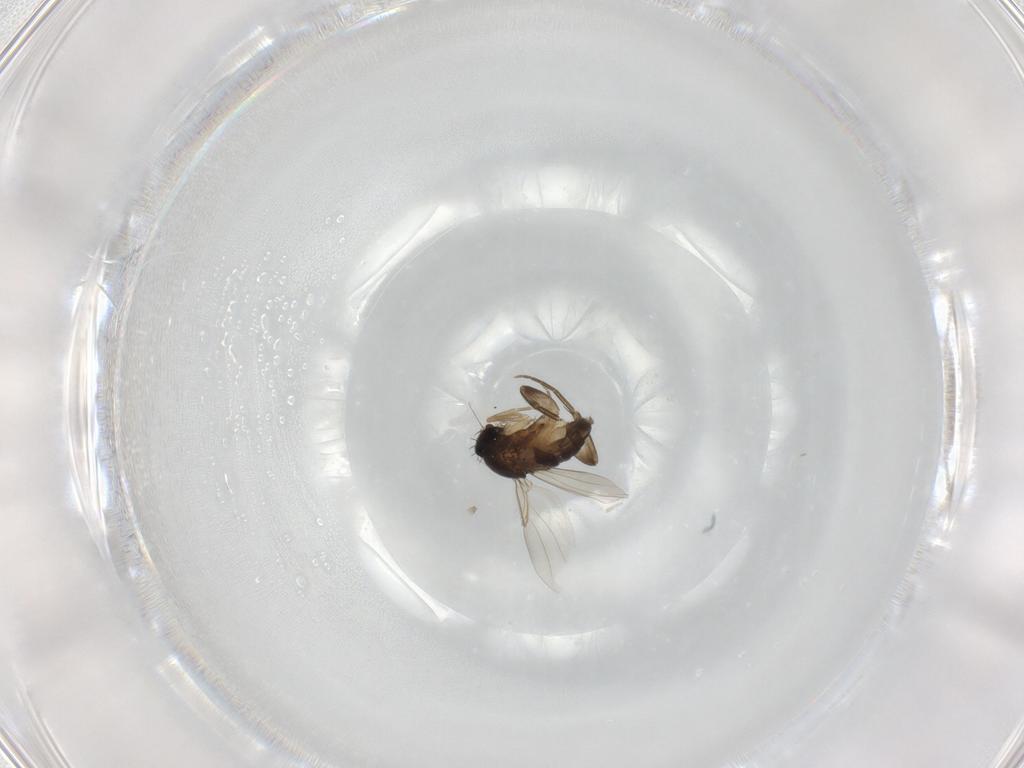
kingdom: Animalia
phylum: Arthropoda
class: Insecta
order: Diptera
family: Phoridae
